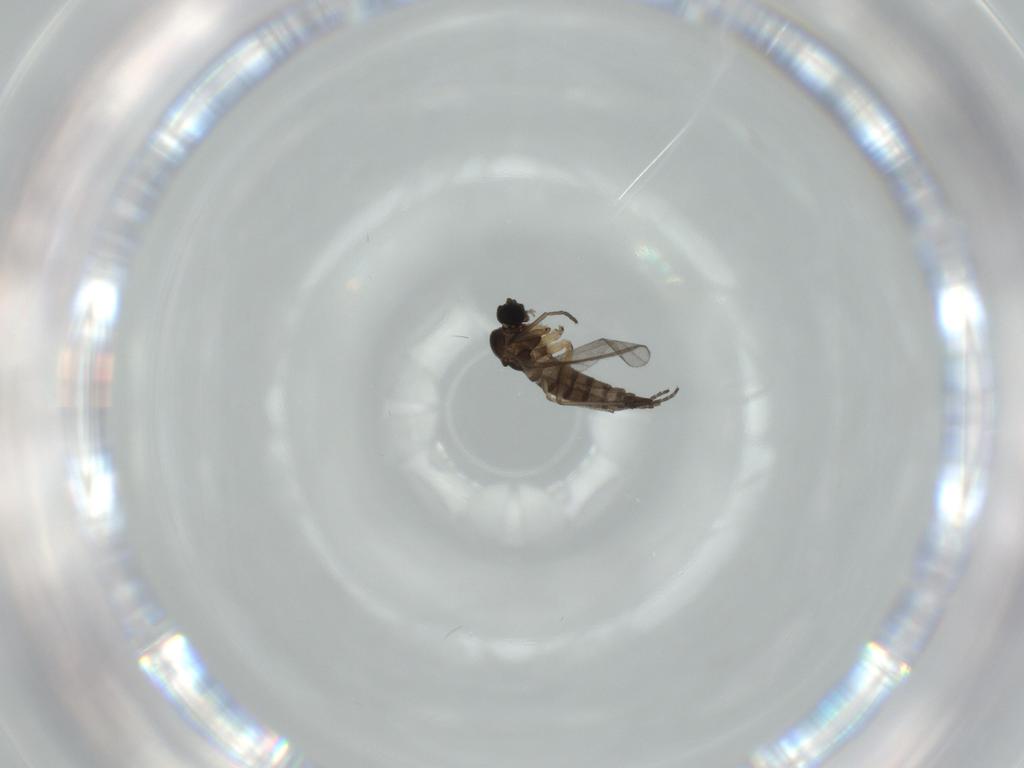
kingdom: Animalia
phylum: Arthropoda
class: Insecta
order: Diptera
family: Sciaridae
